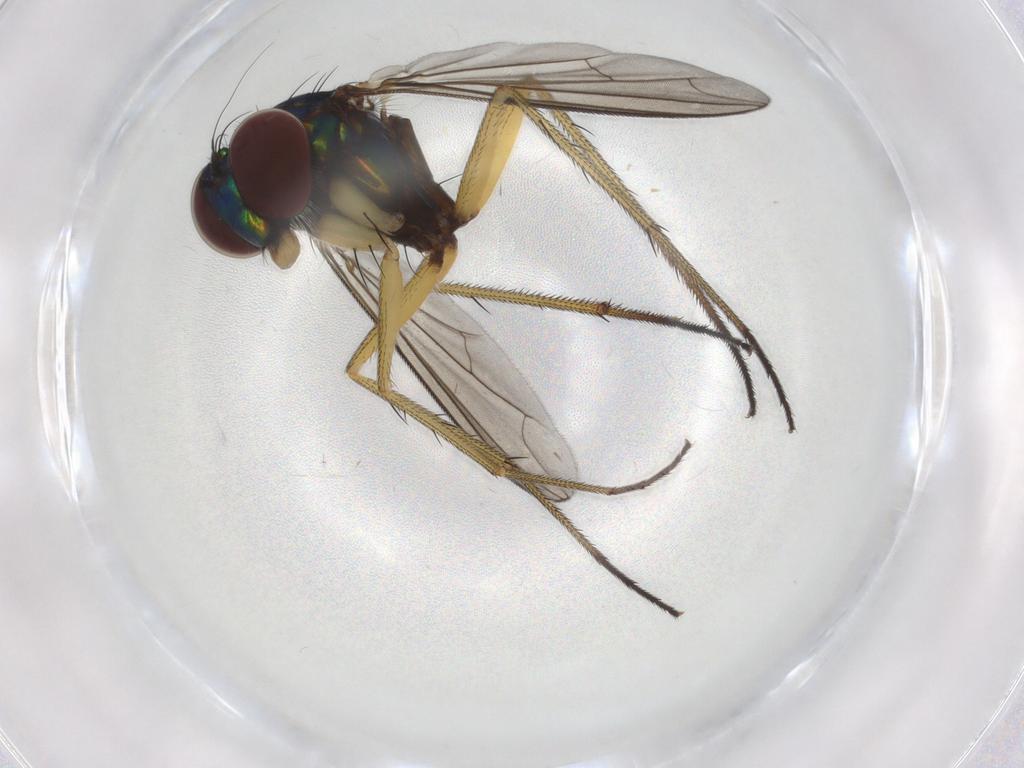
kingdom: Animalia
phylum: Arthropoda
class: Insecta
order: Diptera
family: Dolichopodidae
